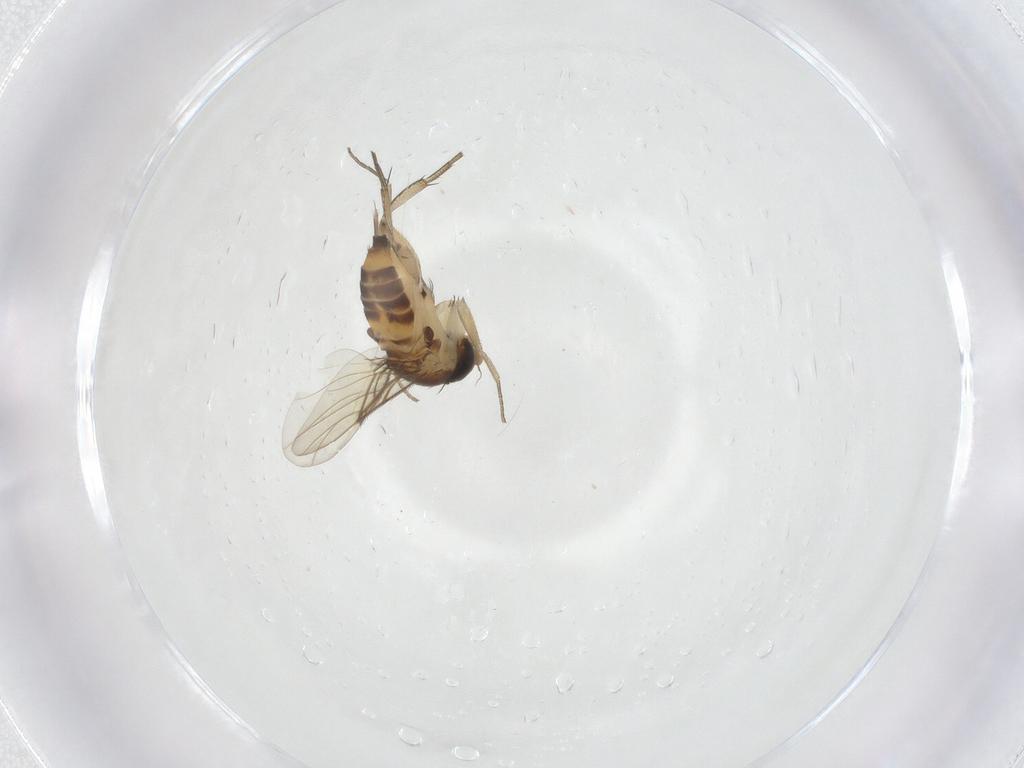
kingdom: Animalia
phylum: Arthropoda
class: Insecta
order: Diptera
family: Phoridae
